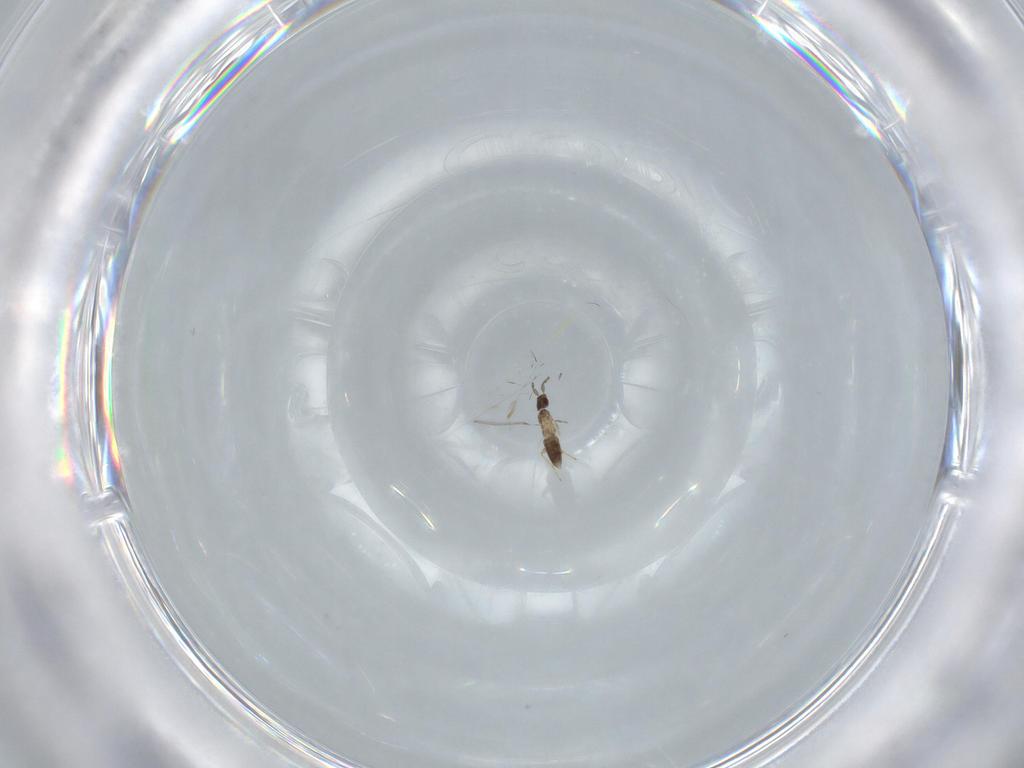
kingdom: Animalia
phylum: Arthropoda
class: Insecta
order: Hymenoptera
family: Mymaridae
